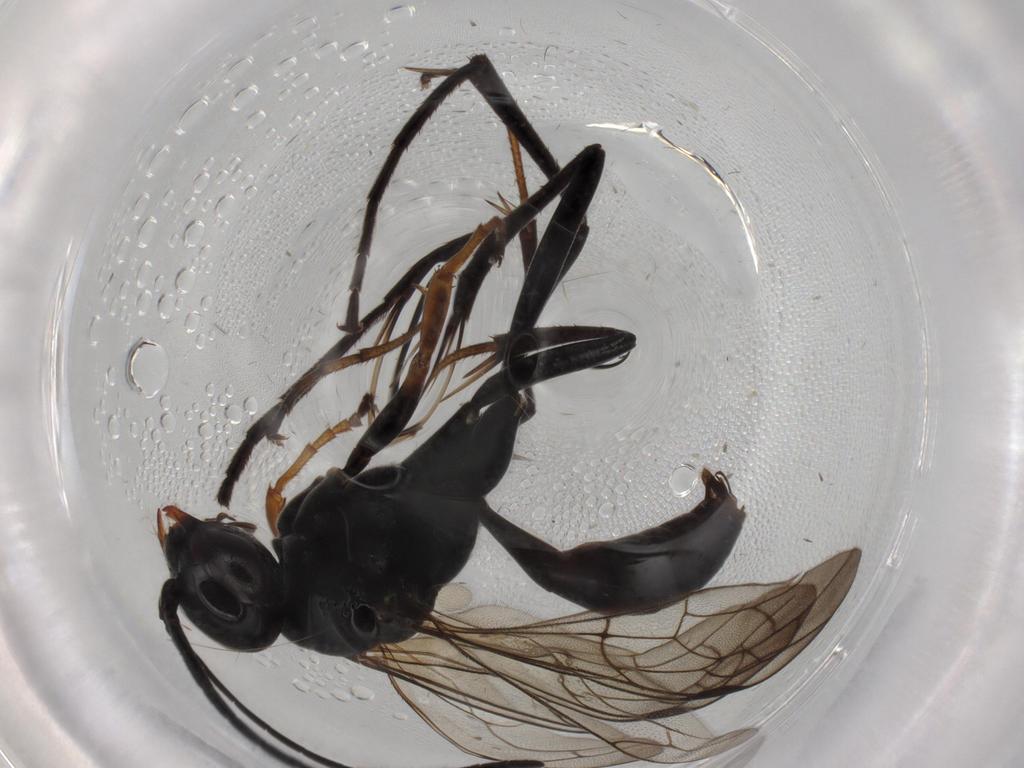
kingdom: Animalia
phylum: Arthropoda
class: Insecta
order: Hymenoptera
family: Pompilidae
